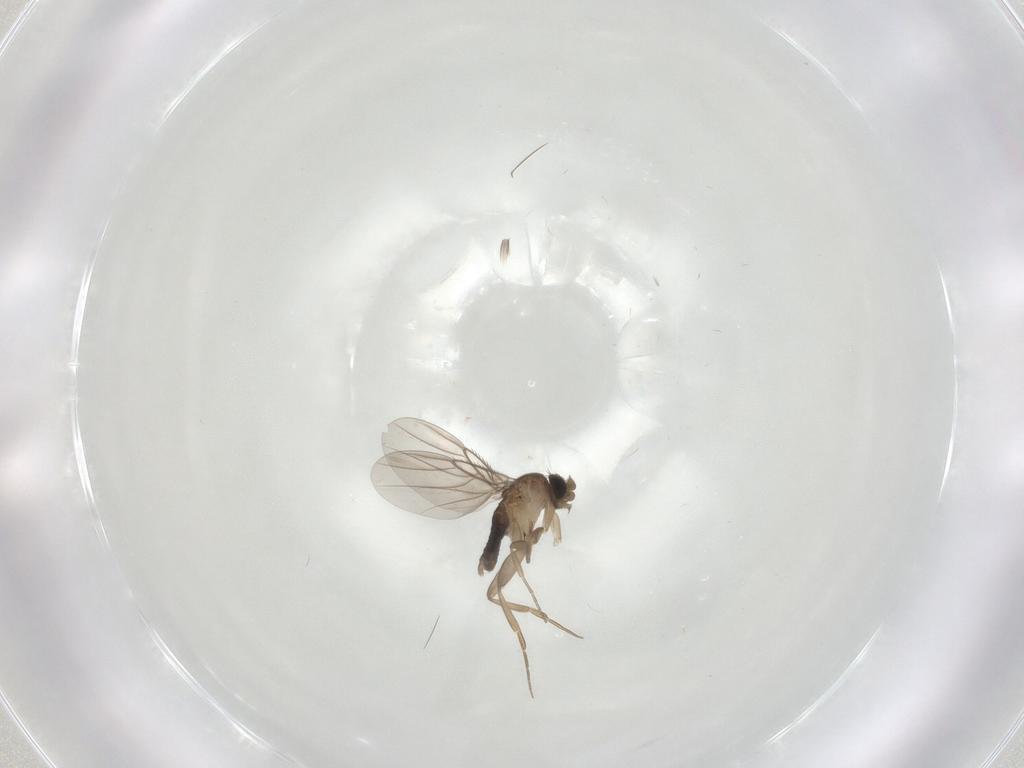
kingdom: Animalia
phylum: Arthropoda
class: Insecta
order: Diptera
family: Phoridae
